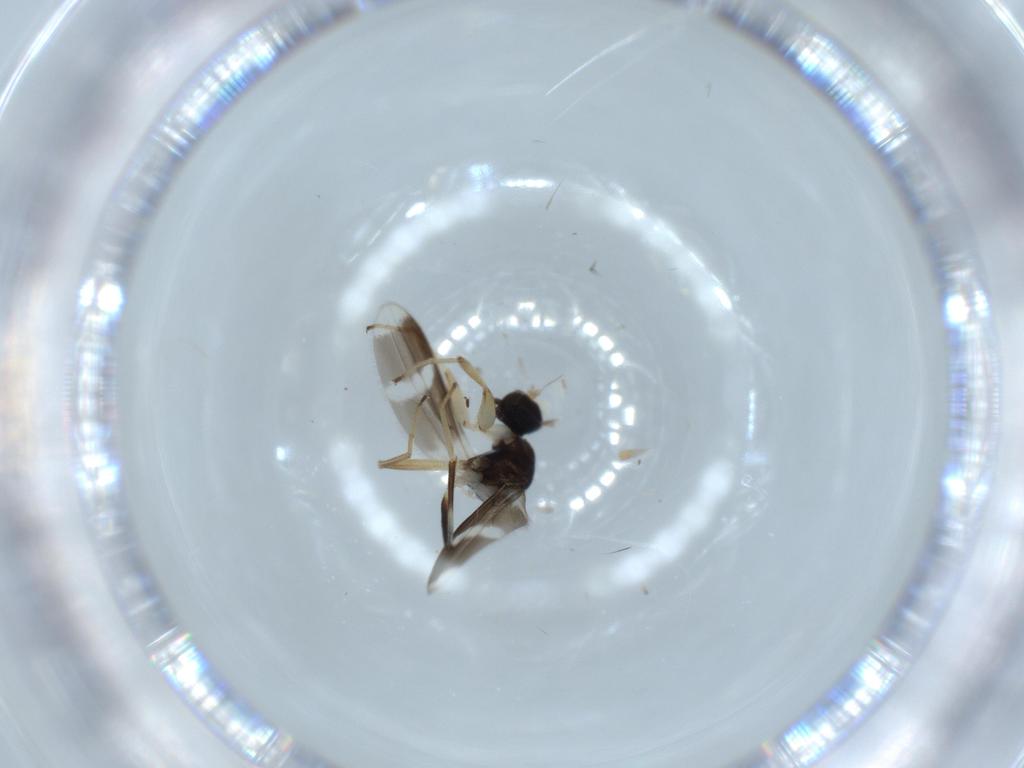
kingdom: Animalia
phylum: Arthropoda
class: Insecta
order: Diptera
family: Hybotidae
